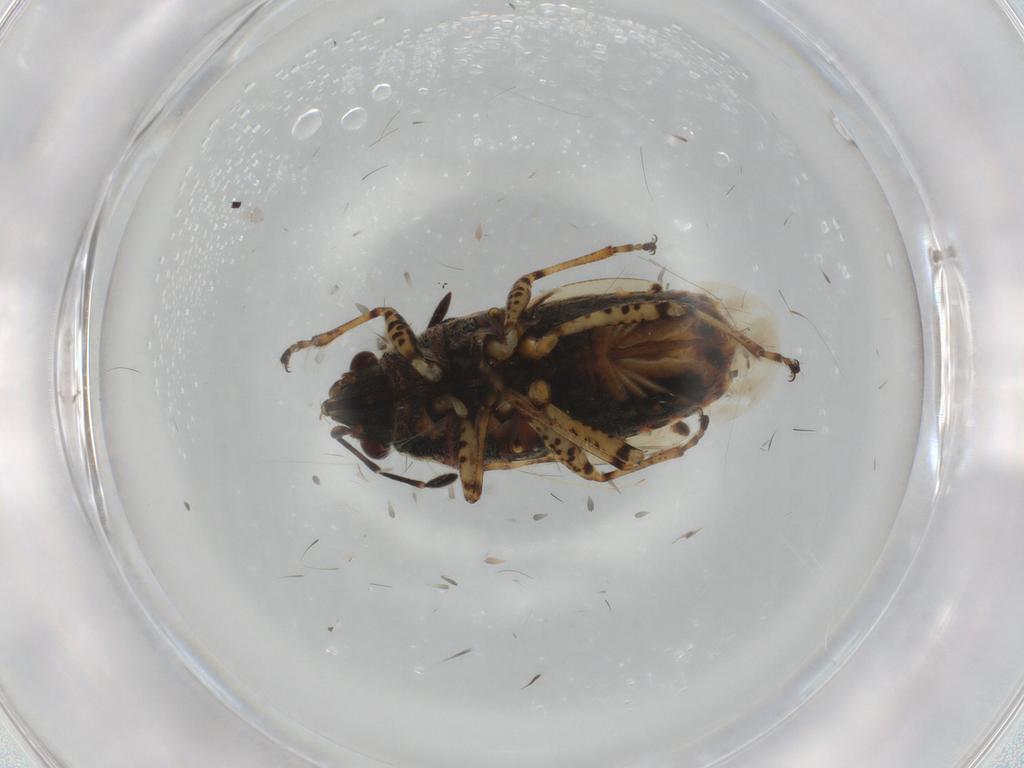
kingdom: Animalia
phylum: Arthropoda
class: Insecta
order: Hemiptera
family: Lygaeidae
